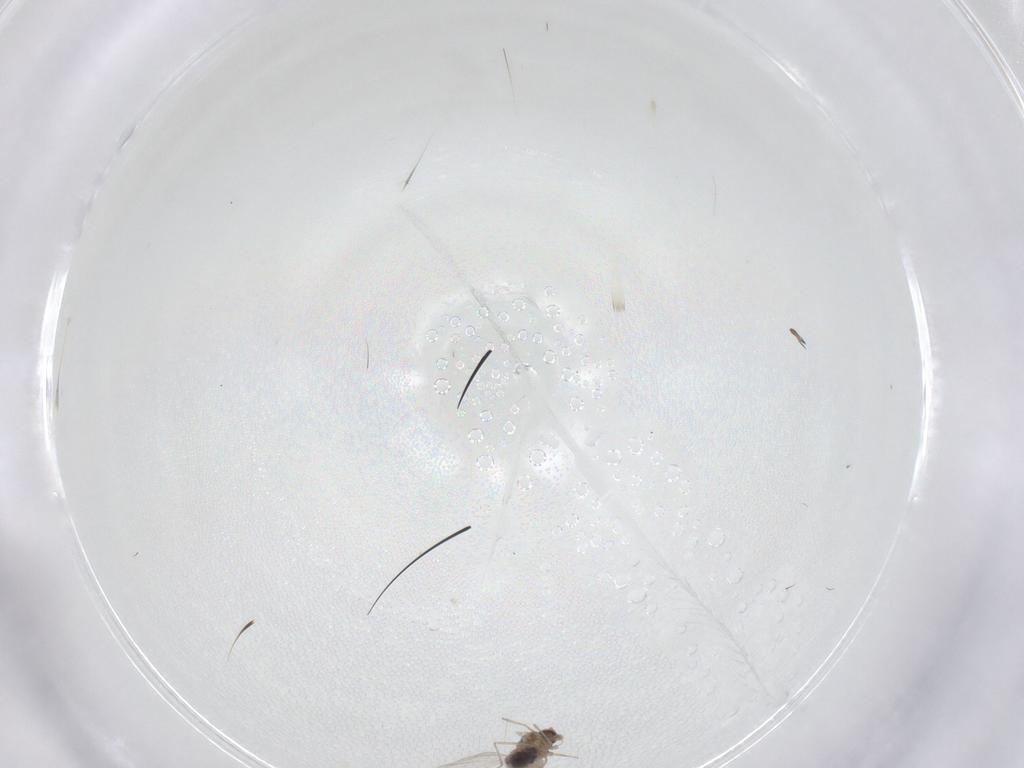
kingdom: Animalia
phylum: Arthropoda
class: Insecta
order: Diptera
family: Cecidomyiidae
